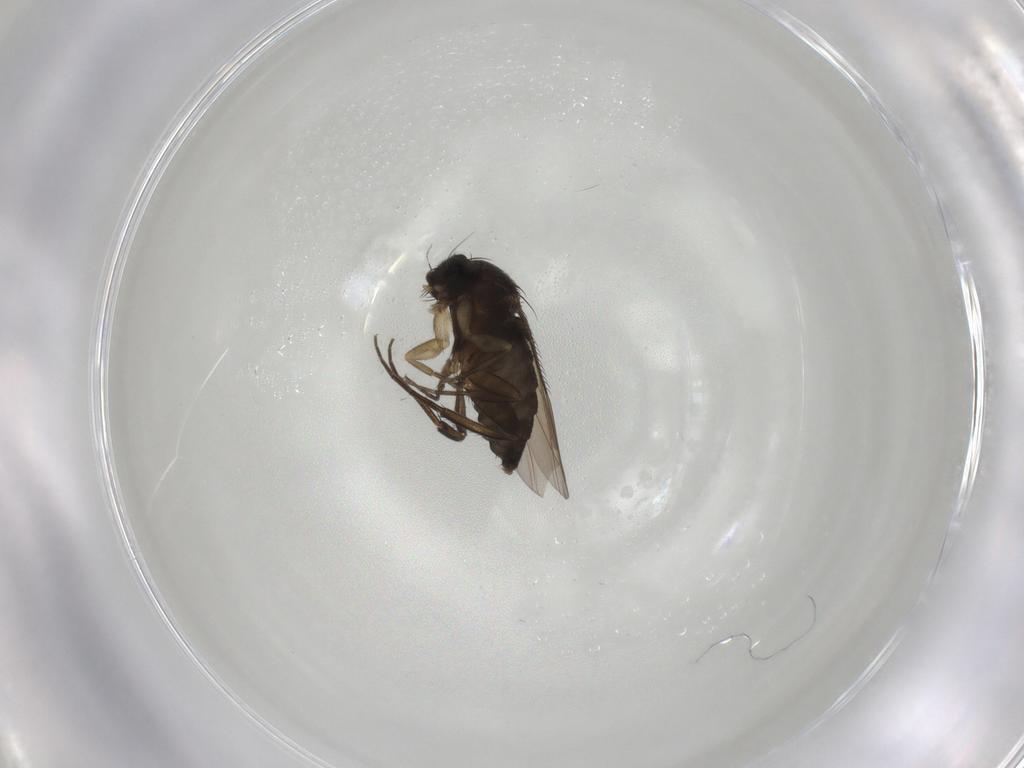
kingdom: Animalia
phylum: Arthropoda
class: Insecta
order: Diptera
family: Phoridae
